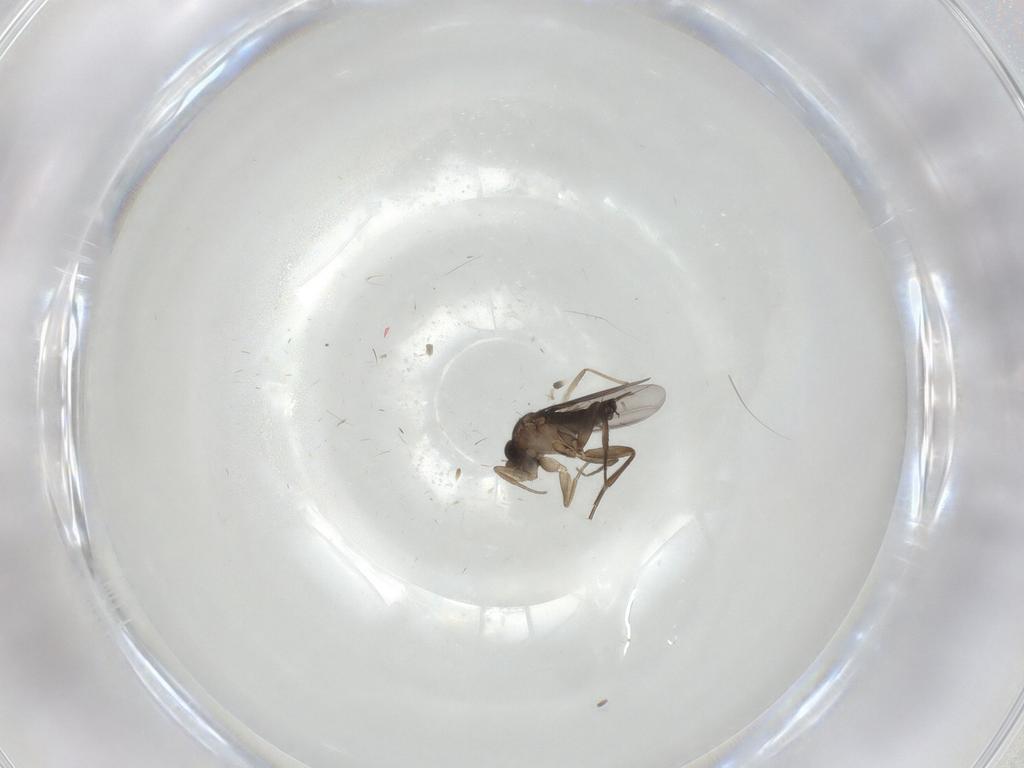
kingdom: Animalia
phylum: Arthropoda
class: Insecta
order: Diptera
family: Phoridae
